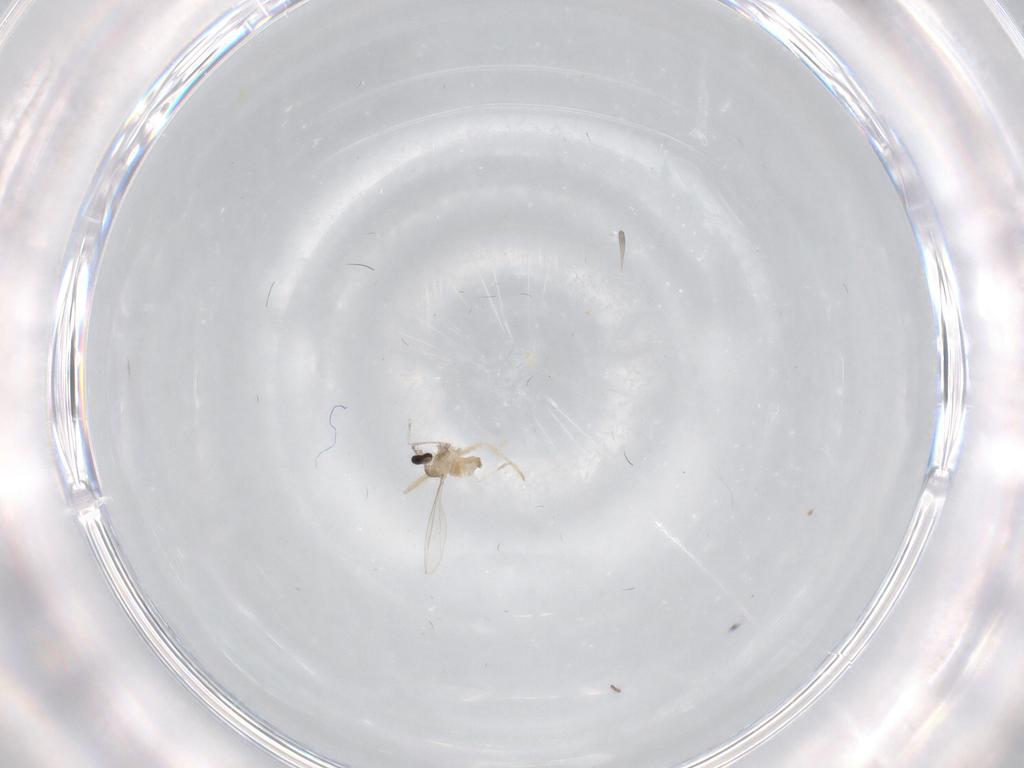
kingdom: Animalia
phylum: Arthropoda
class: Insecta
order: Diptera
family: Cecidomyiidae
